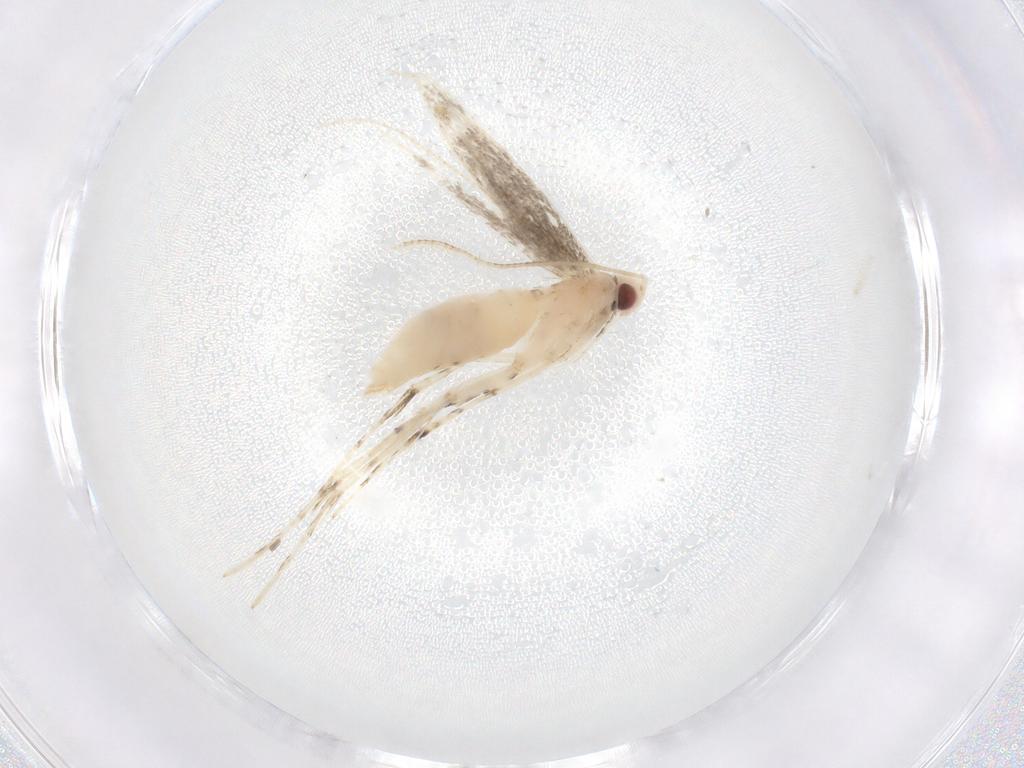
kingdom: Animalia
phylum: Arthropoda
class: Insecta
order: Lepidoptera
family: Gracillariidae
